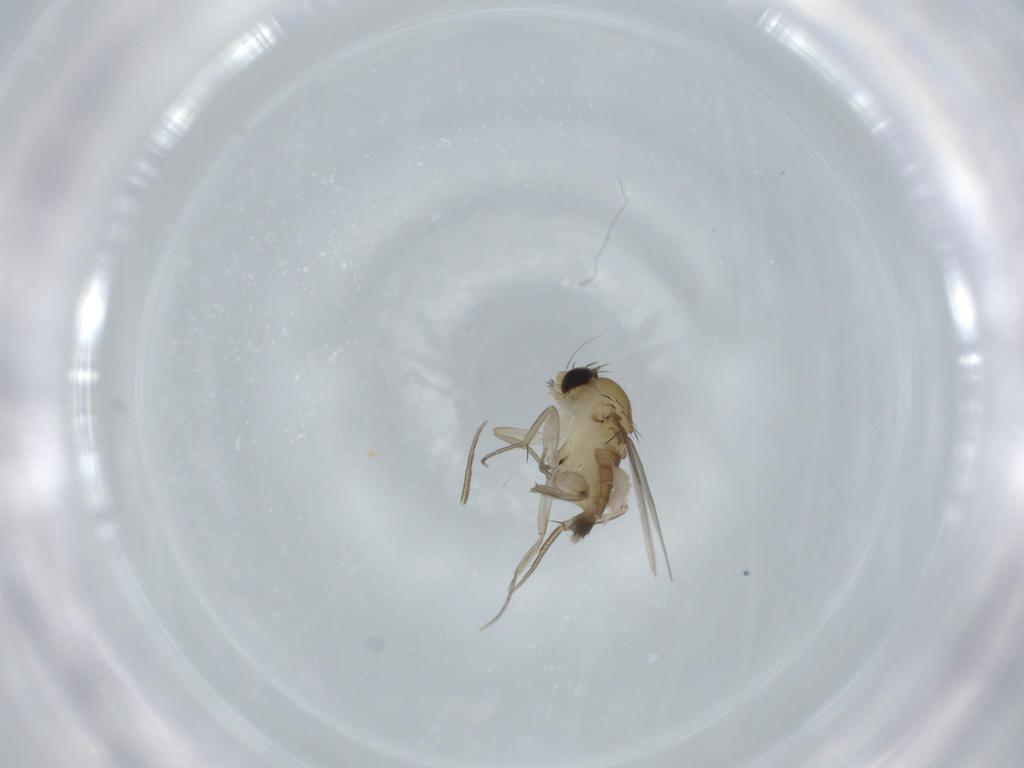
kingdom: Animalia
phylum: Arthropoda
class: Insecta
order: Diptera
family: Phoridae
